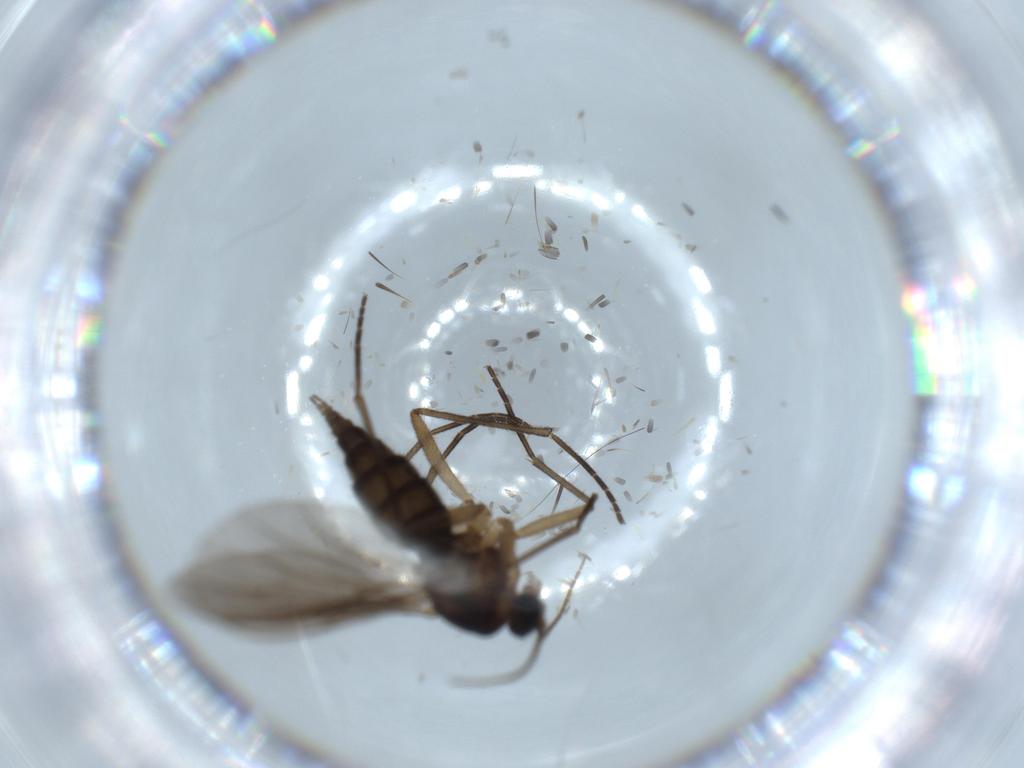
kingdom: Animalia
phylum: Arthropoda
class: Insecta
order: Diptera
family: Sciaridae
